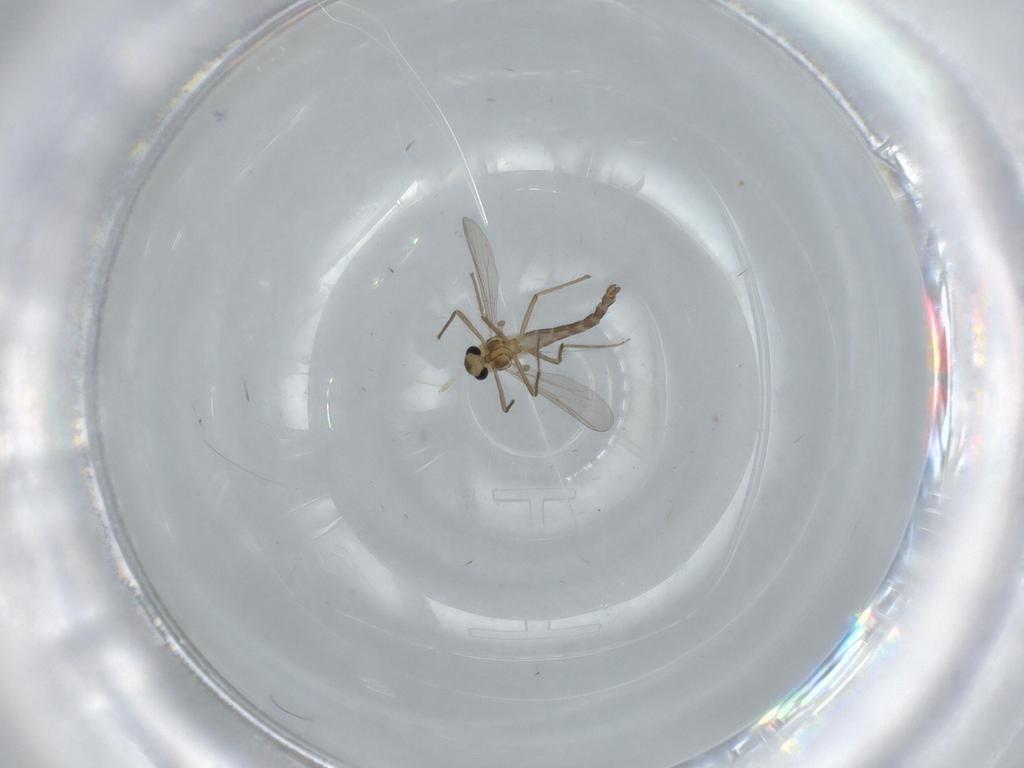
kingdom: Animalia
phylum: Arthropoda
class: Insecta
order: Diptera
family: Chironomidae
